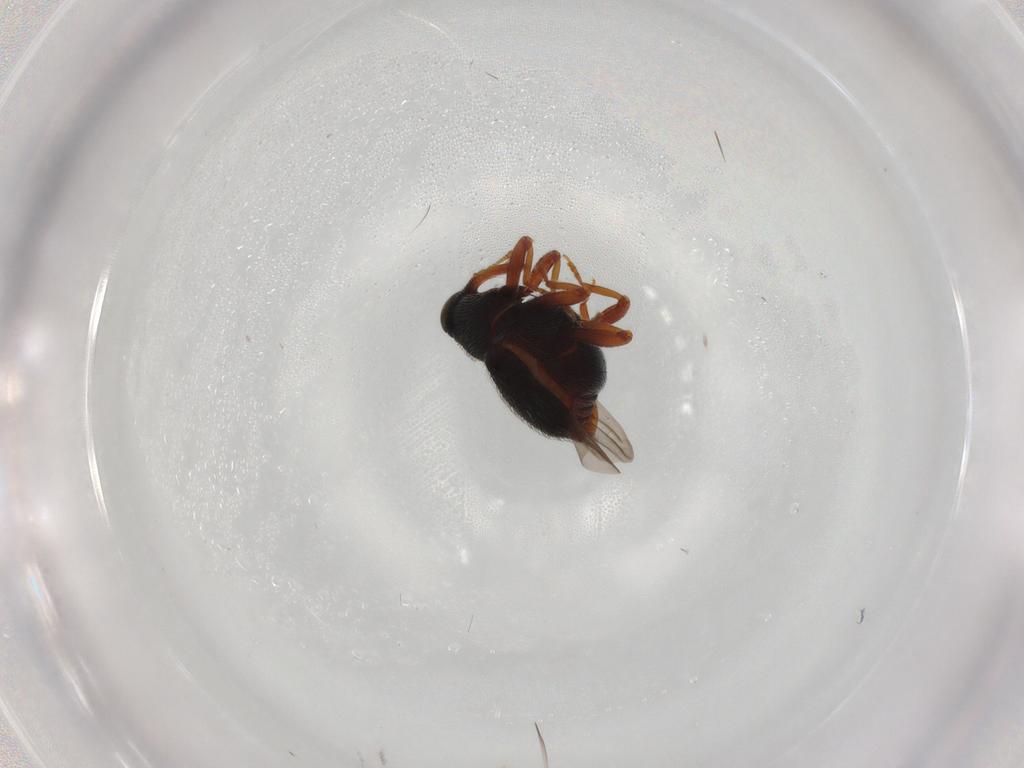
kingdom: Animalia
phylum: Arthropoda
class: Insecta
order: Coleoptera
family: Curculionidae
